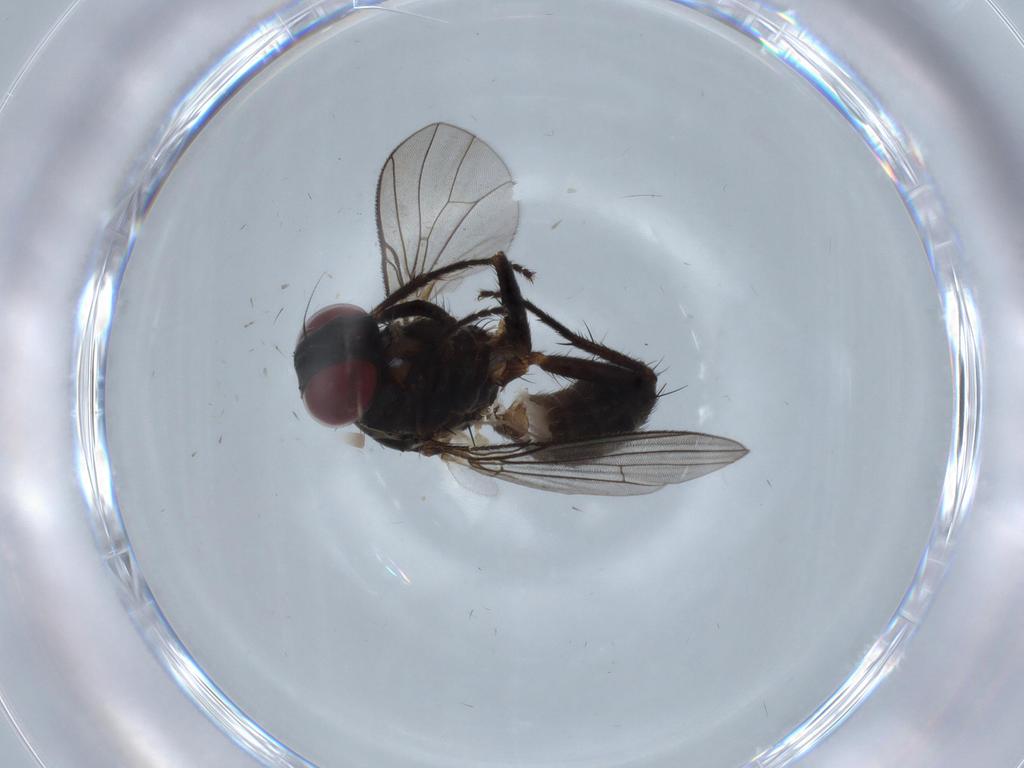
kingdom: Animalia
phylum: Arthropoda
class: Insecta
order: Diptera
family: Muscidae
